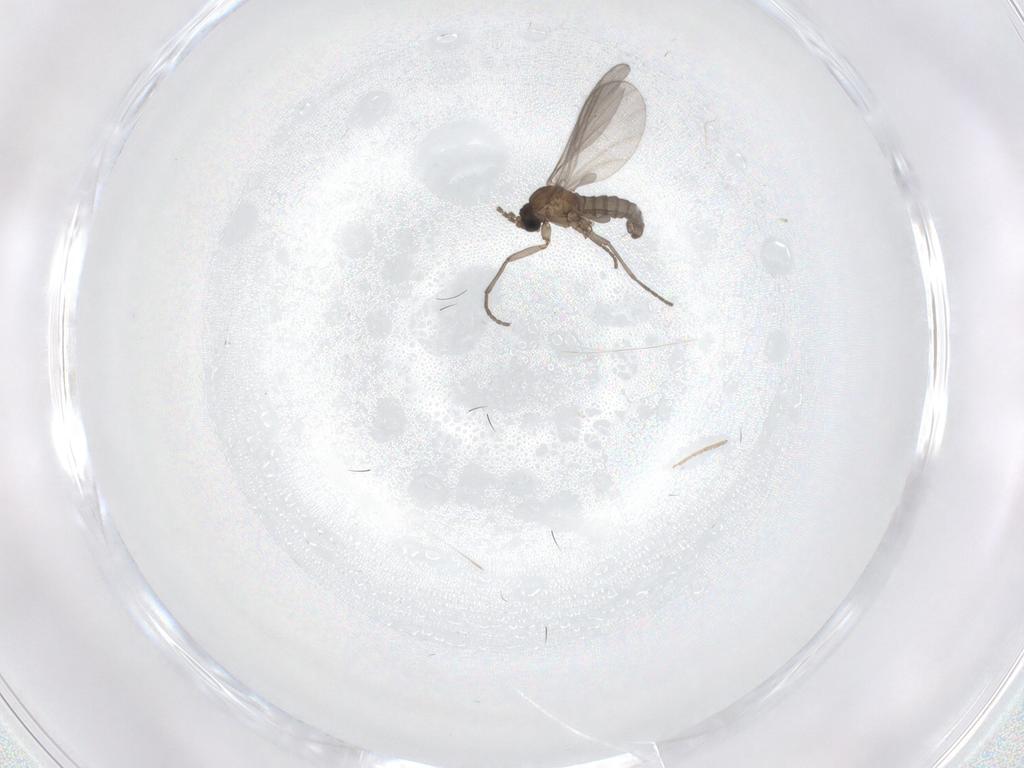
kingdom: Animalia
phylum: Arthropoda
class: Insecta
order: Diptera
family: Sciaridae
